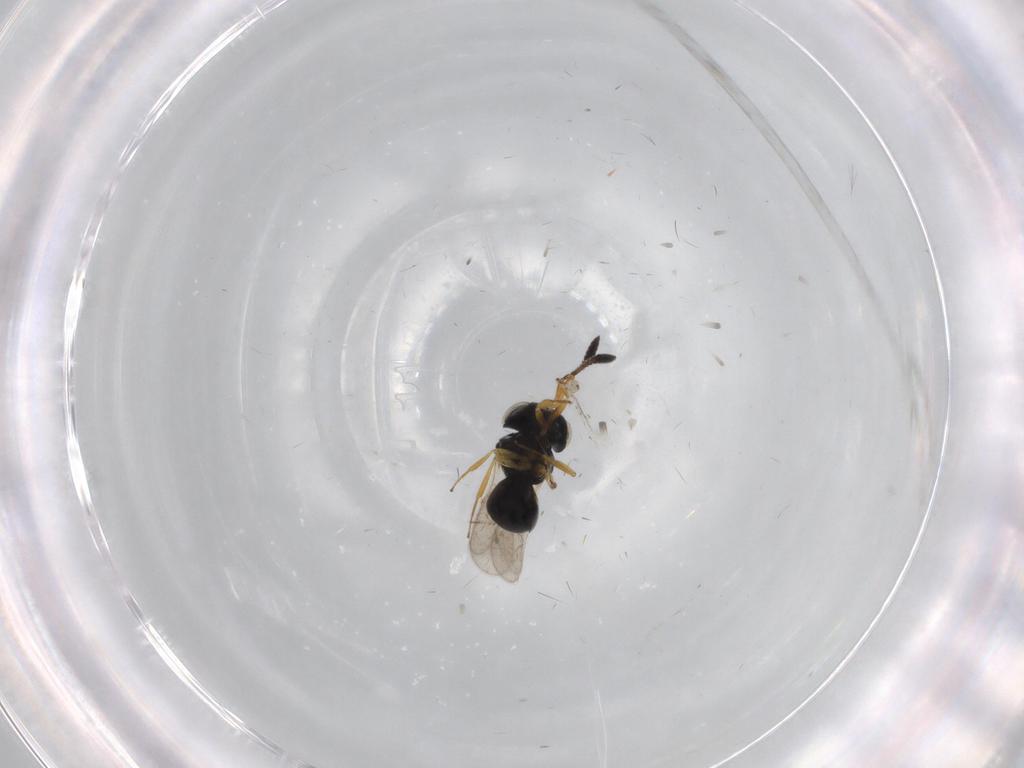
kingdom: Animalia
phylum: Arthropoda
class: Insecta
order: Hymenoptera
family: Scelionidae
